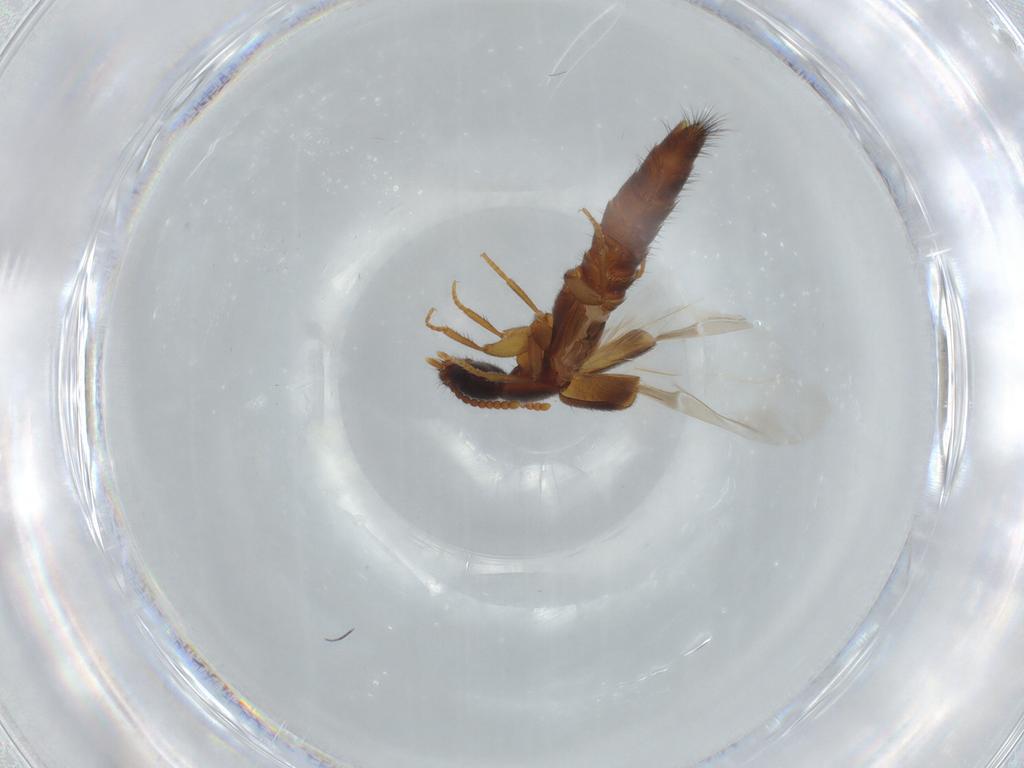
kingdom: Animalia
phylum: Arthropoda
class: Insecta
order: Coleoptera
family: Staphylinidae
